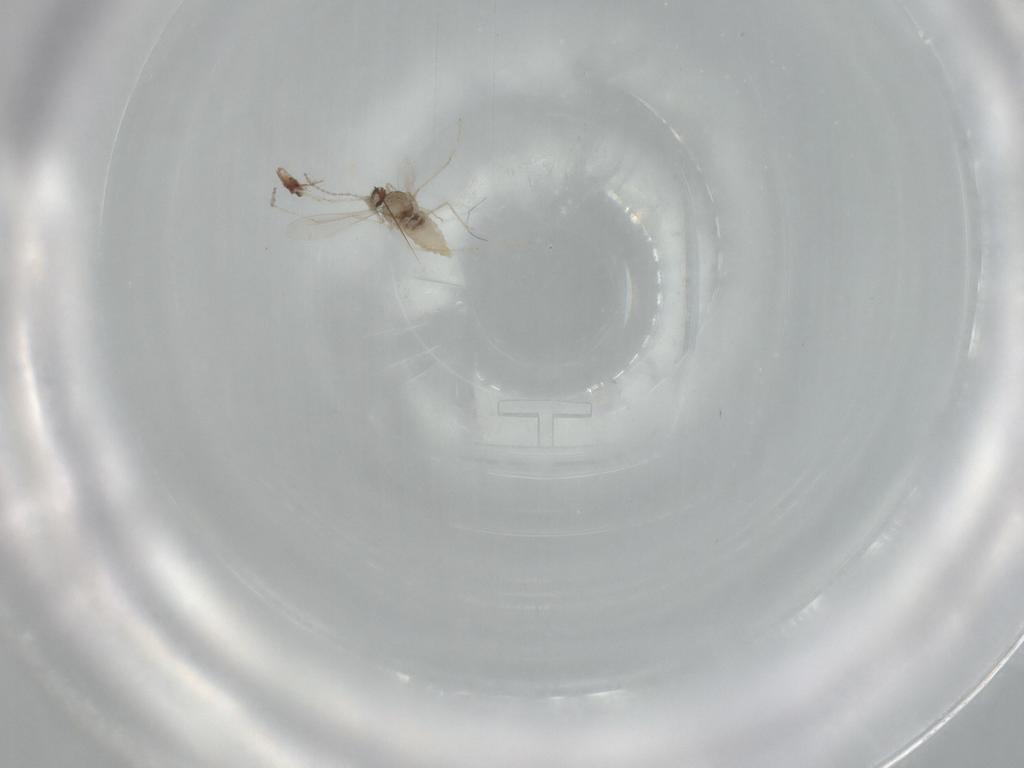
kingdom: Animalia
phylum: Arthropoda
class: Insecta
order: Diptera
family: Cecidomyiidae
